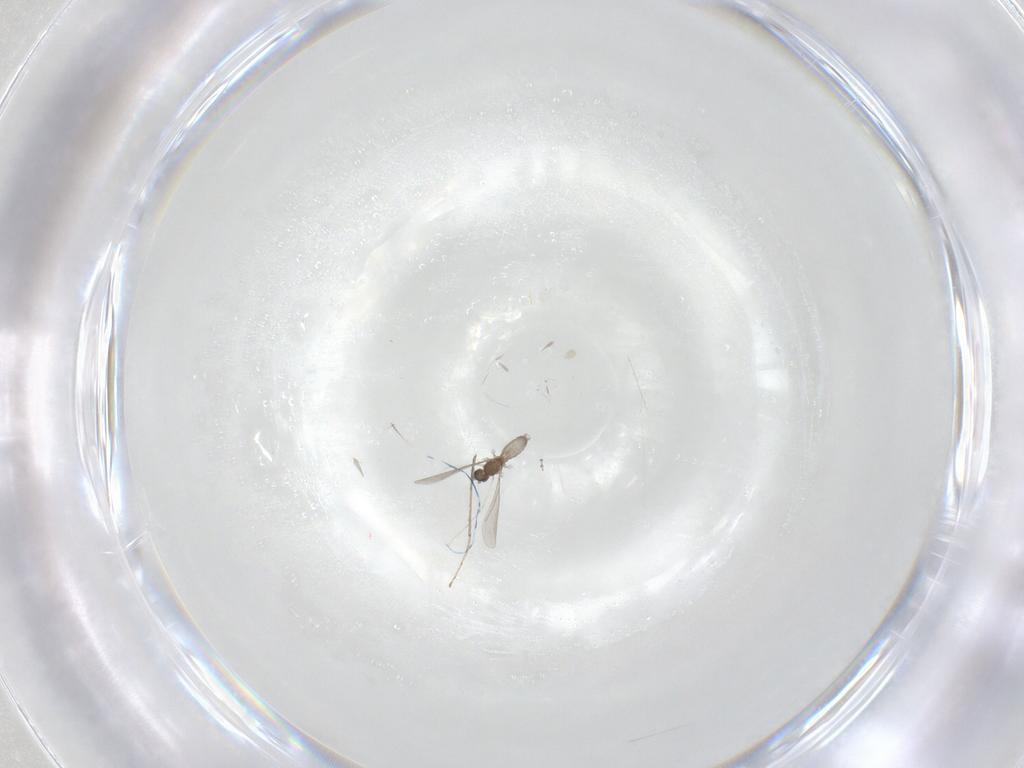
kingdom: Animalia
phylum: Arthropoda
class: Insecta
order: Diptera
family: Cecidomyiidae
